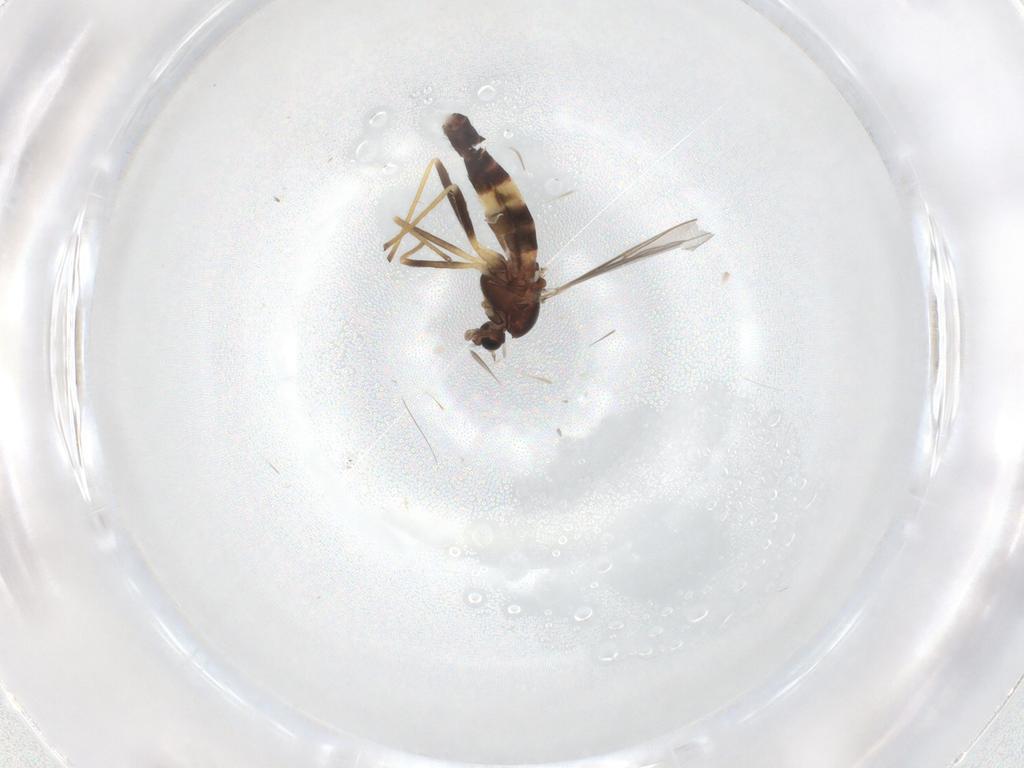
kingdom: Animalia
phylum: Arthropoda
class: Insecta
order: Diptera
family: Chironomidae
